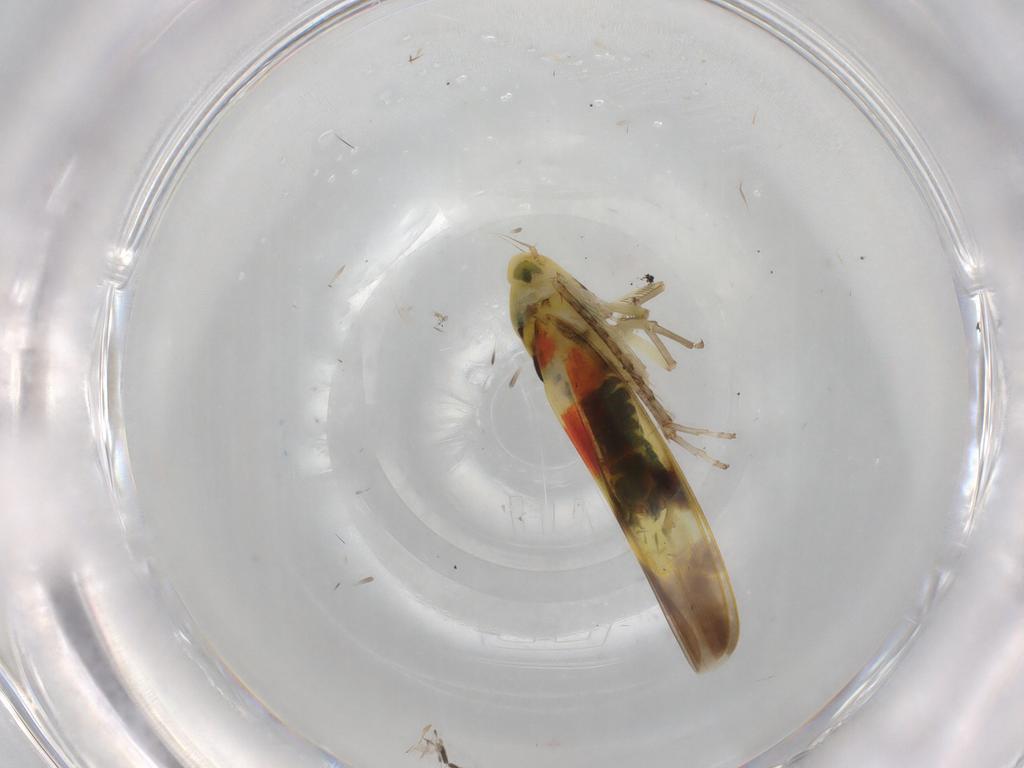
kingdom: Animalia
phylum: Arthropoda
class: Insecta
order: Hemiptera
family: Cicadellidae
